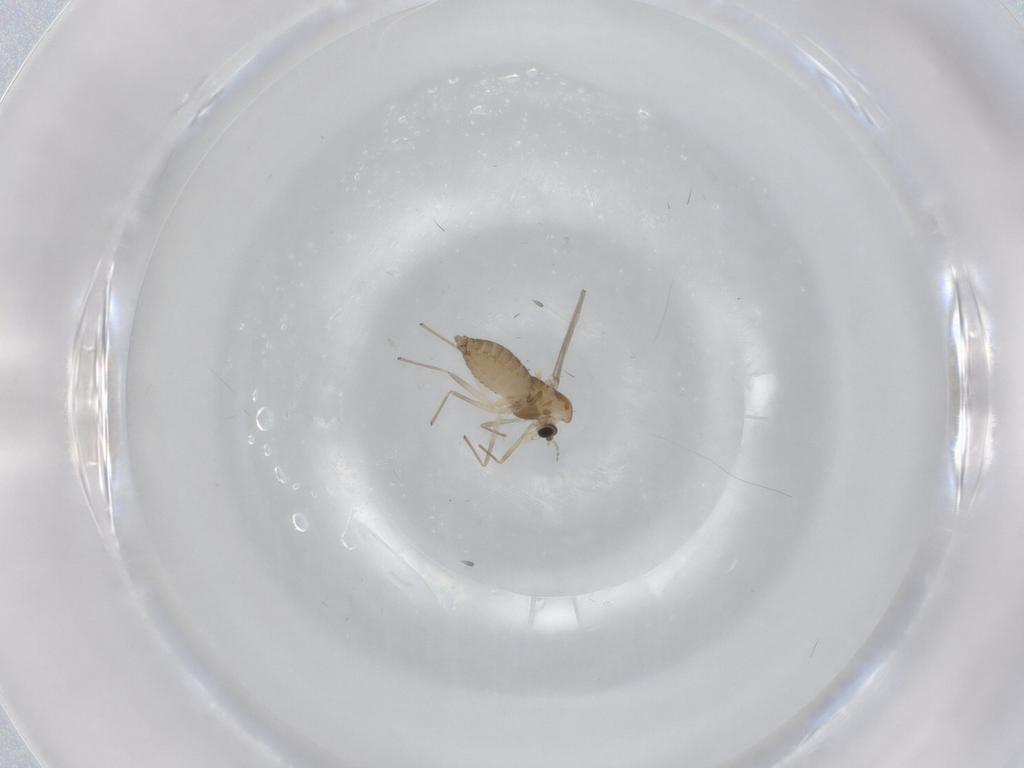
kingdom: Animalia
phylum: Arthropoda
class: Insecta
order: Diptera
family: Chironomidae
